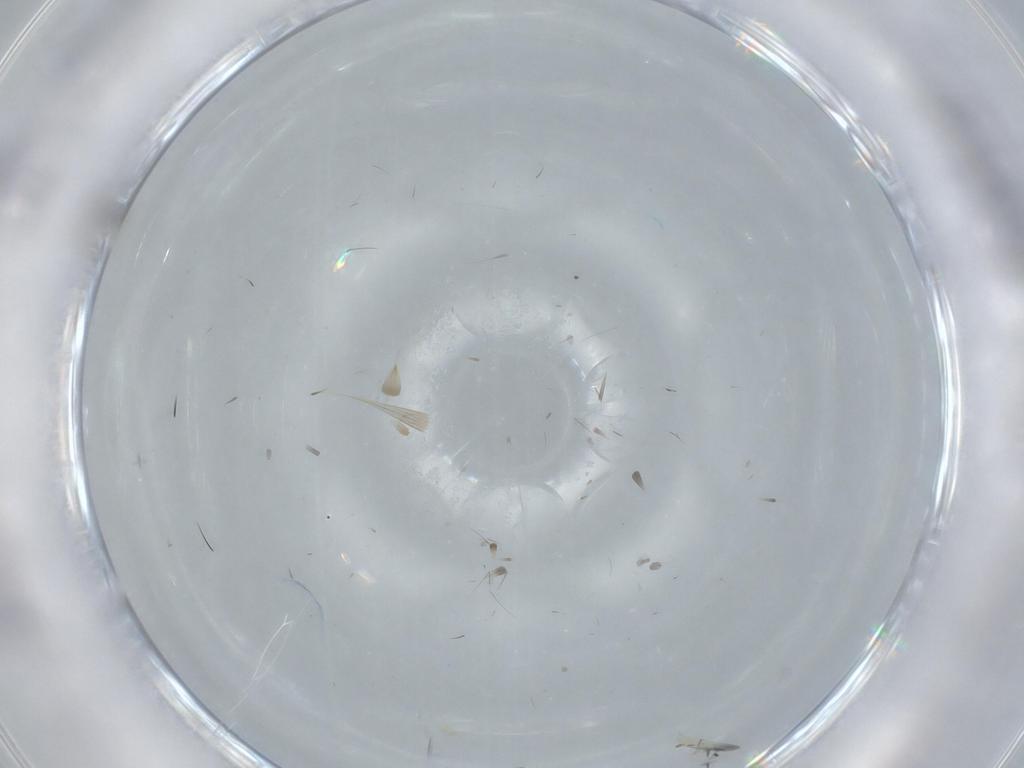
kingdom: Animalia
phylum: Arthropoda
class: Insecta
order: Hymenoptera
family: Aphelinidae
